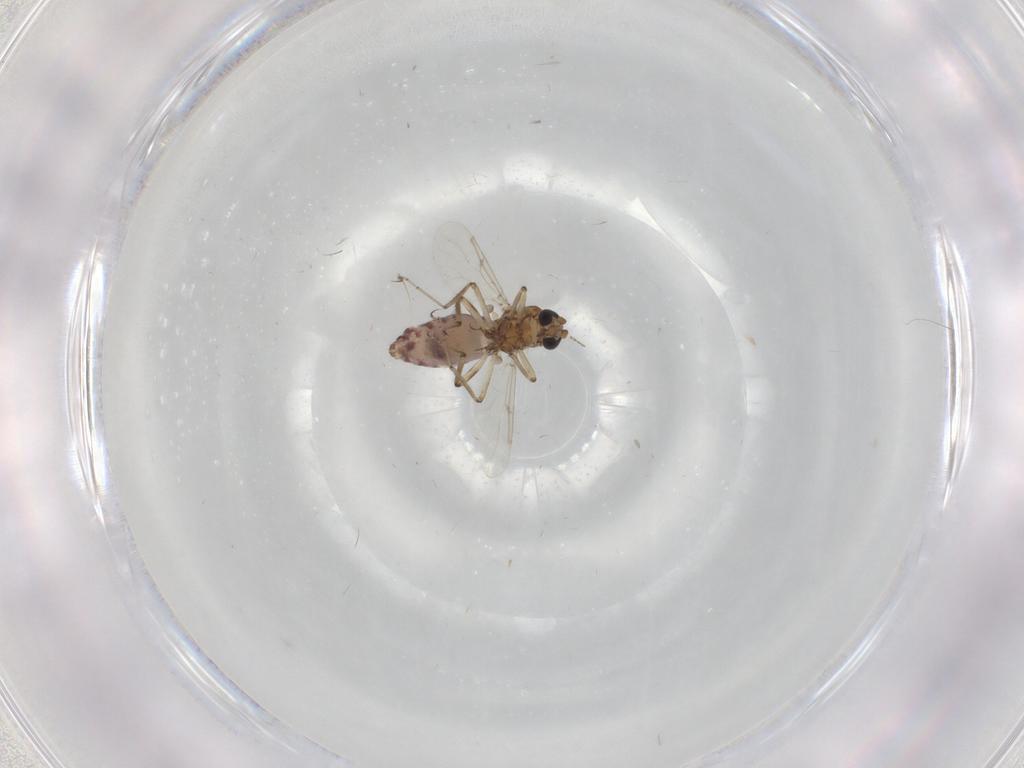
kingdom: Animalia
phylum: Arthropoda
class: Insecta
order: Diptera
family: Ceratopogonidae
